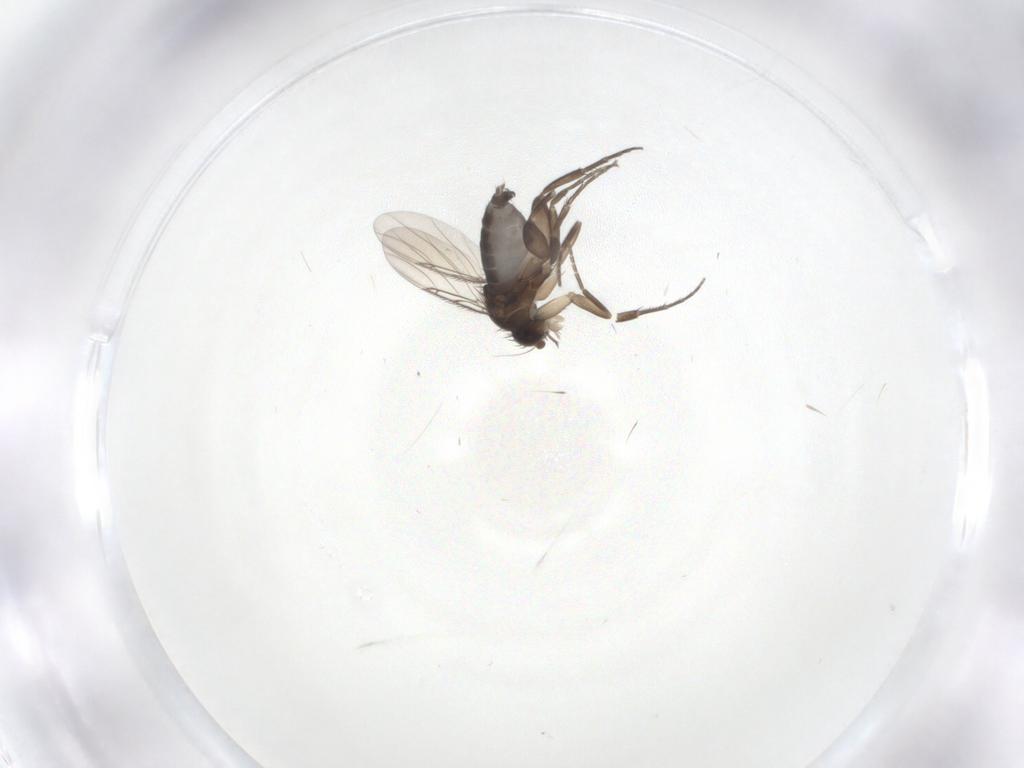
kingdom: Animalia
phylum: Arthropoda
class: Insecta
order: Diptera
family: Phoridae
